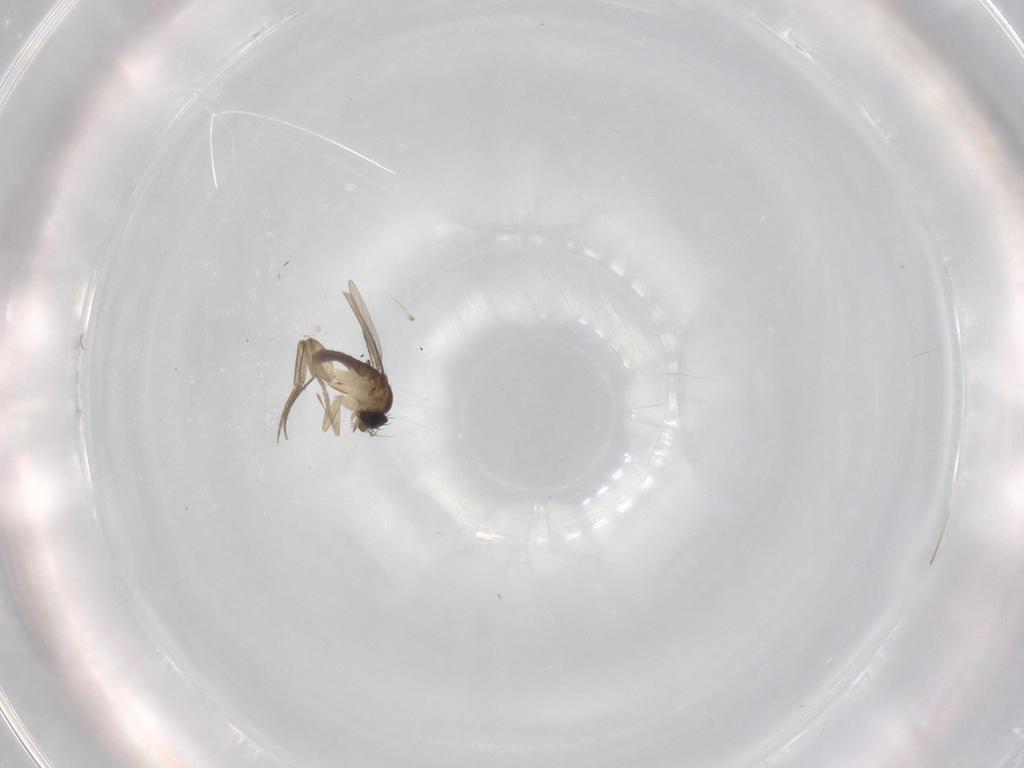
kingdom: Animalia
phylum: Arthropoda
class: Insecta
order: Diptera
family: Phoridae
